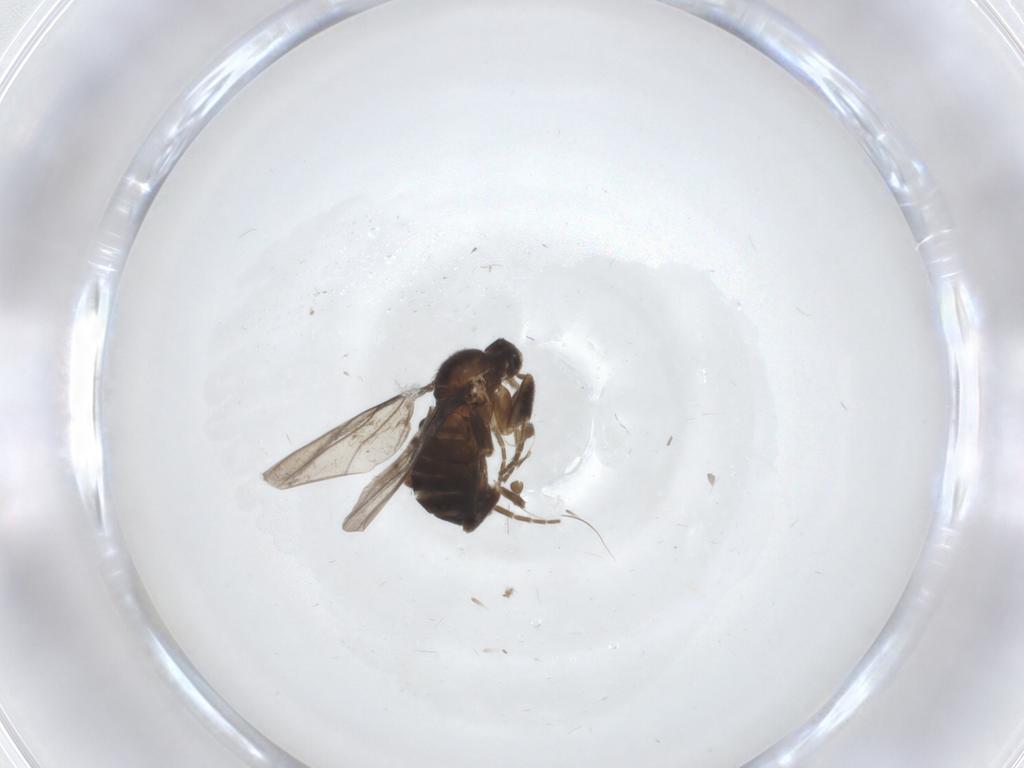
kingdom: Animalia
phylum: Arthropoda
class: Insecta
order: Diptera
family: Tipulidae
